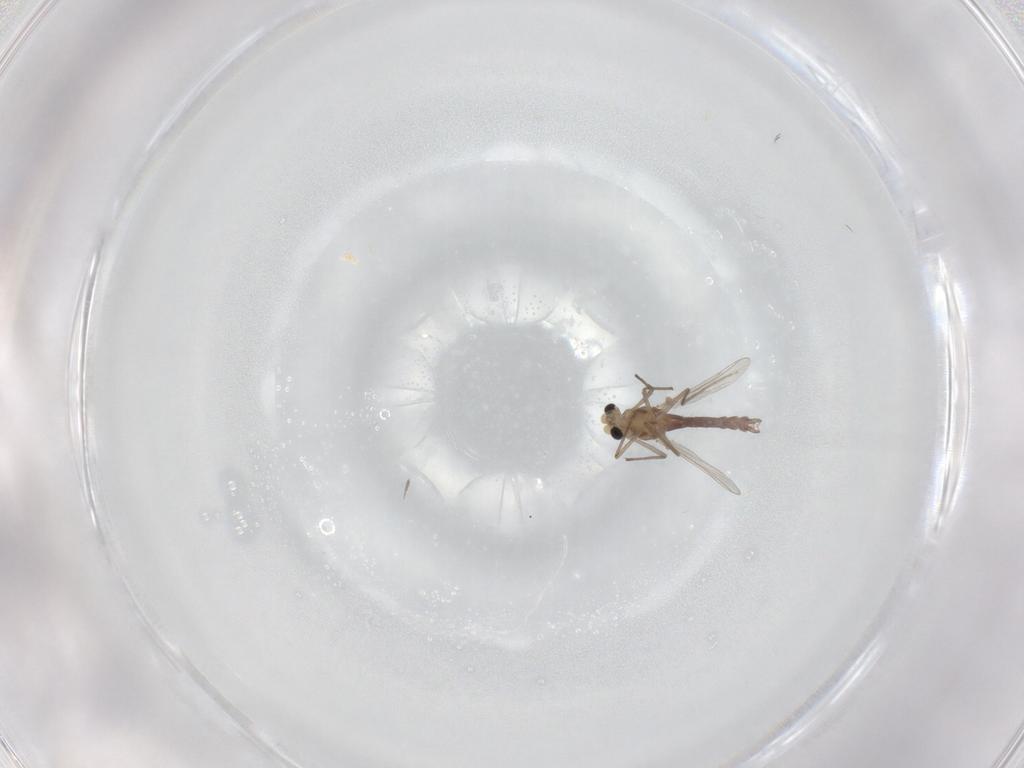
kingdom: Animalia
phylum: Arthropoda
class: Insecta
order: Diptera
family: Chironomidae
